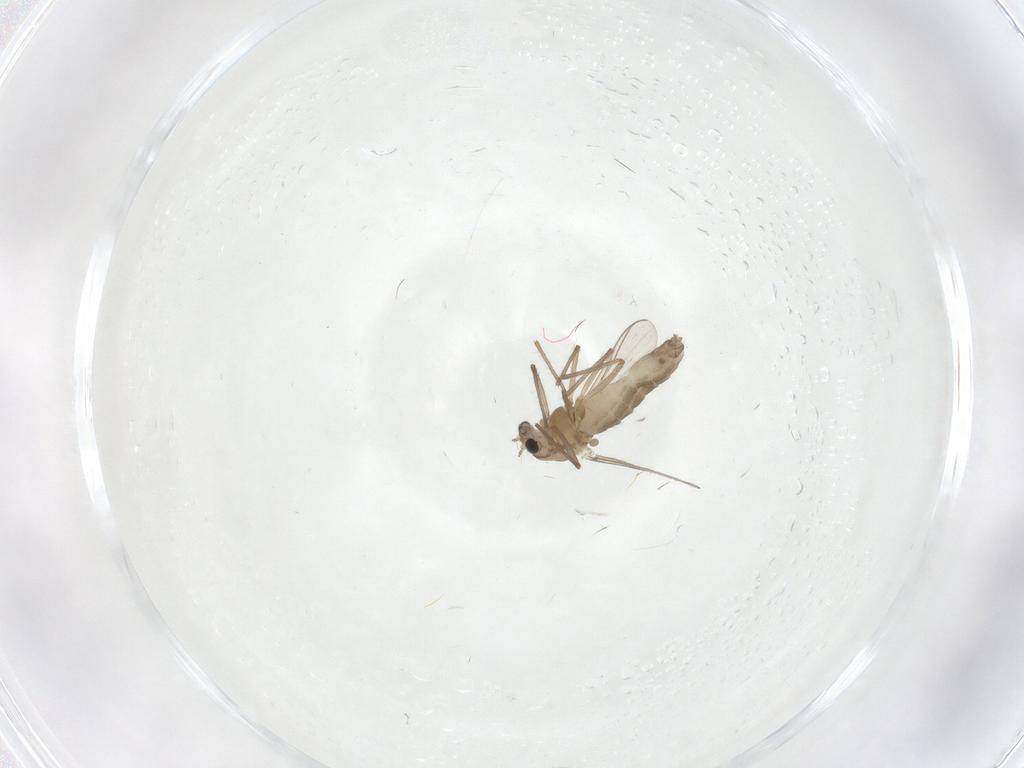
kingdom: Animalia
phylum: Arthropoda
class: Insecta
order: Diptera
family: Chironomidae
